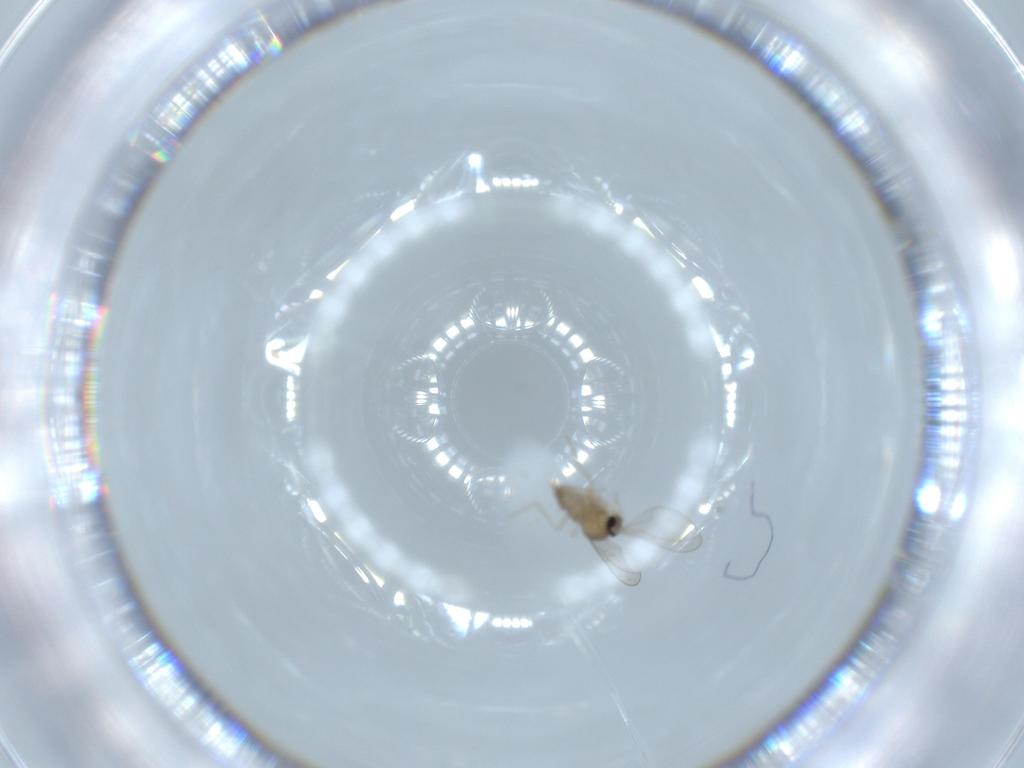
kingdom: Animalia
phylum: Arthropoda
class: Insecta
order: Diptera
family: Cecidomyiidae
